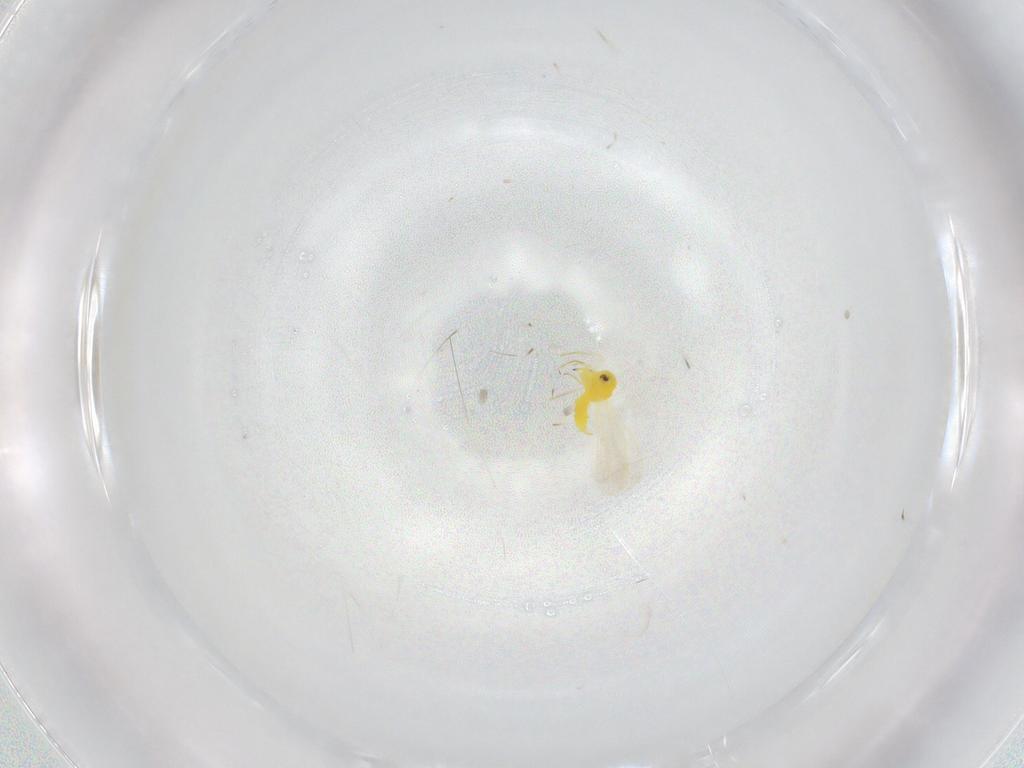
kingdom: Animalia
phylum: Arthropoda
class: Insecta
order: Hemiptera
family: Cicadellidae
